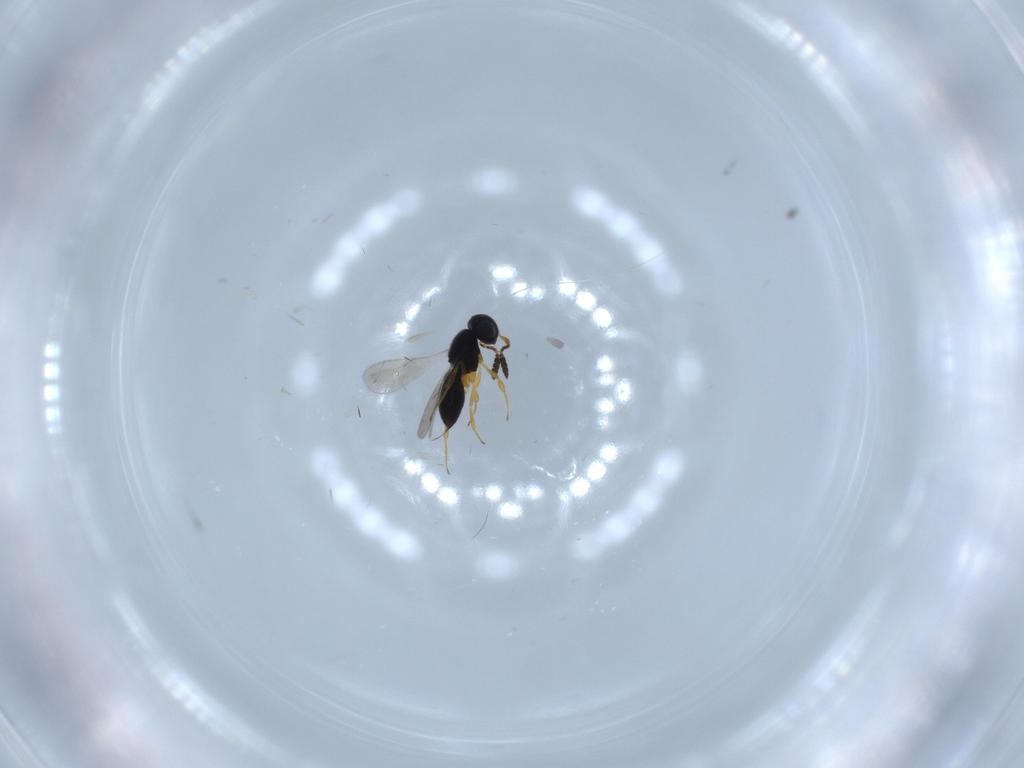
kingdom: Animalia
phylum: Arthropoda
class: Insecta
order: Hymenoptera
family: Scelionidae
